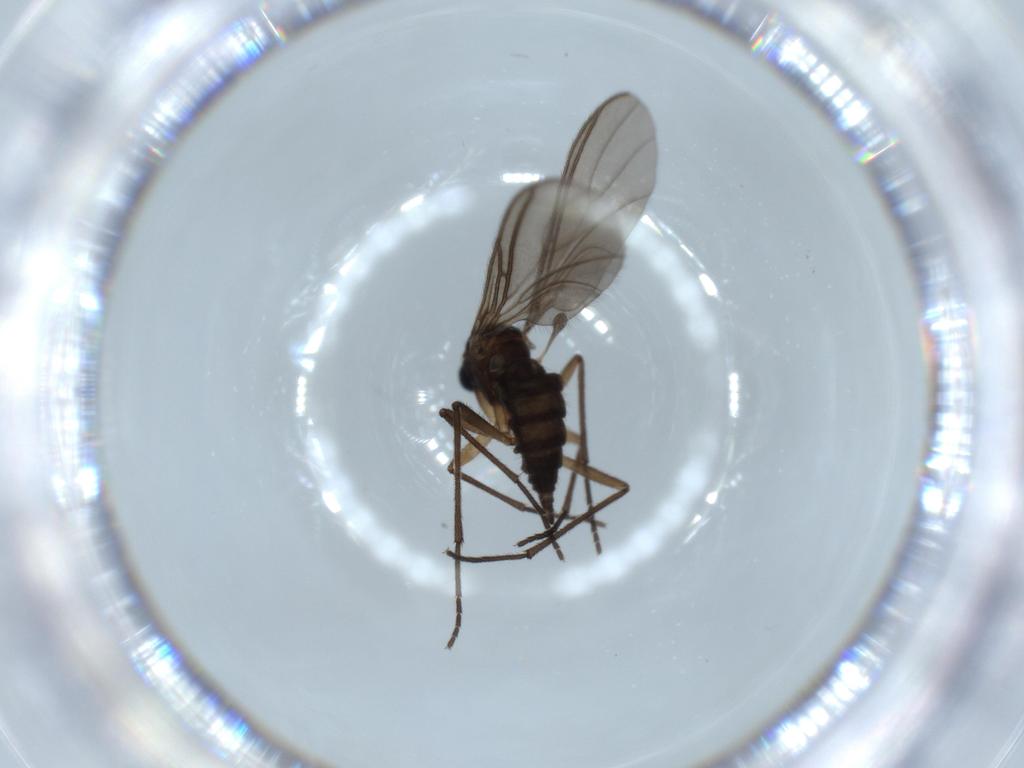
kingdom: Animalia
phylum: Arthropoda
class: Insecta
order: Diptera
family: Sciaridae
